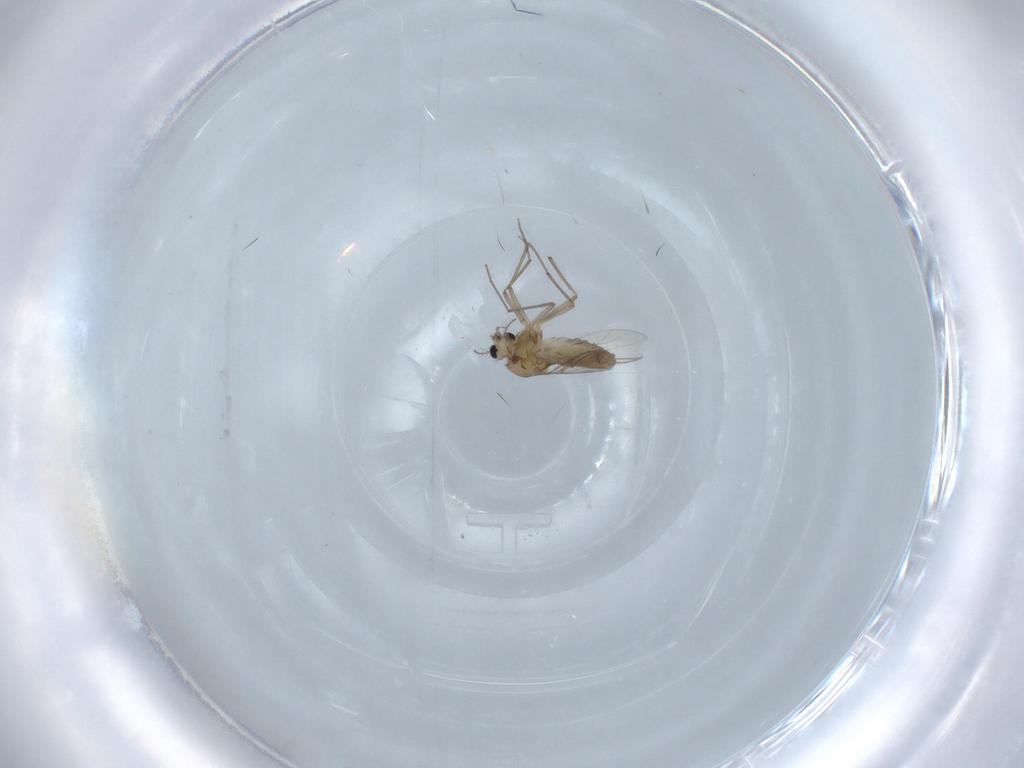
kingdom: Animalia
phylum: Arthropoda
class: Insecta
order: Diptera
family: Chironomidae
